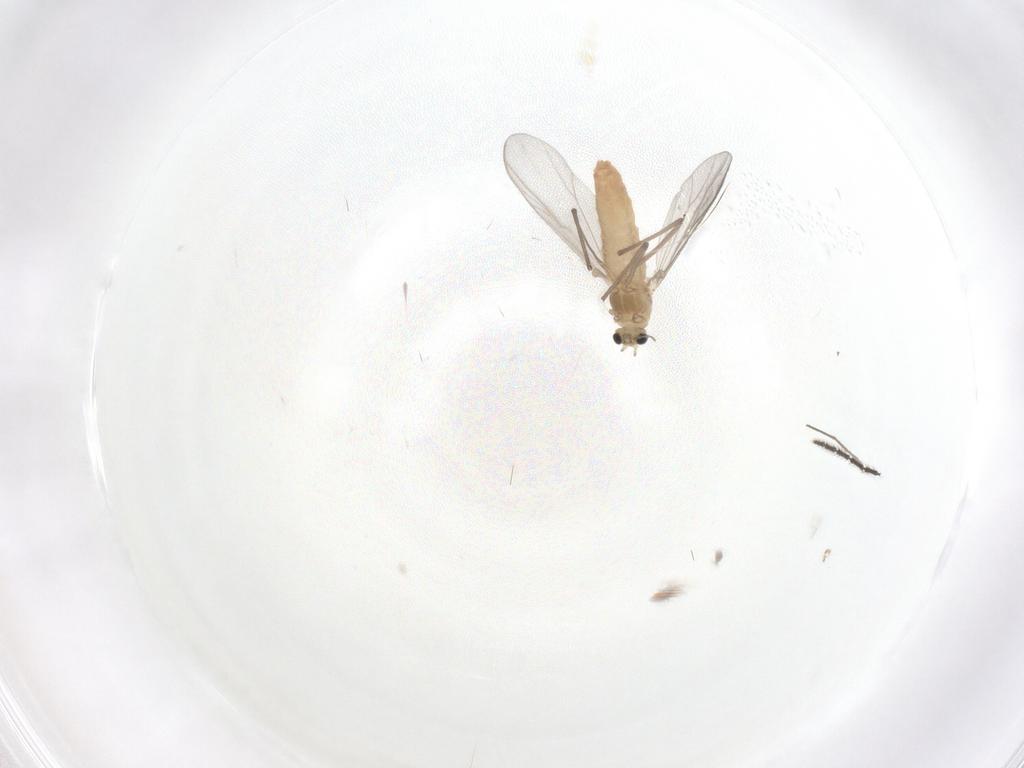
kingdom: Animalia
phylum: Arthropoda
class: Insecta
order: Diptera
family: Chironomidae
